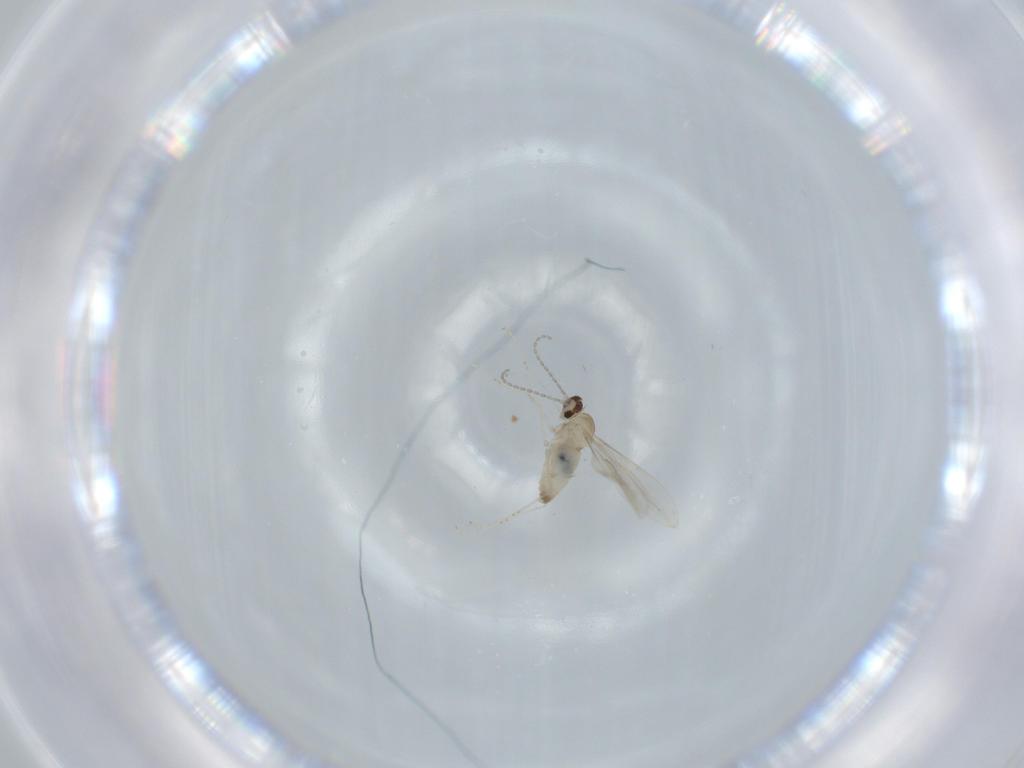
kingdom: Animalia
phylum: Arthropoda
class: Insecta
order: Diptera
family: Cecidomyiidae
